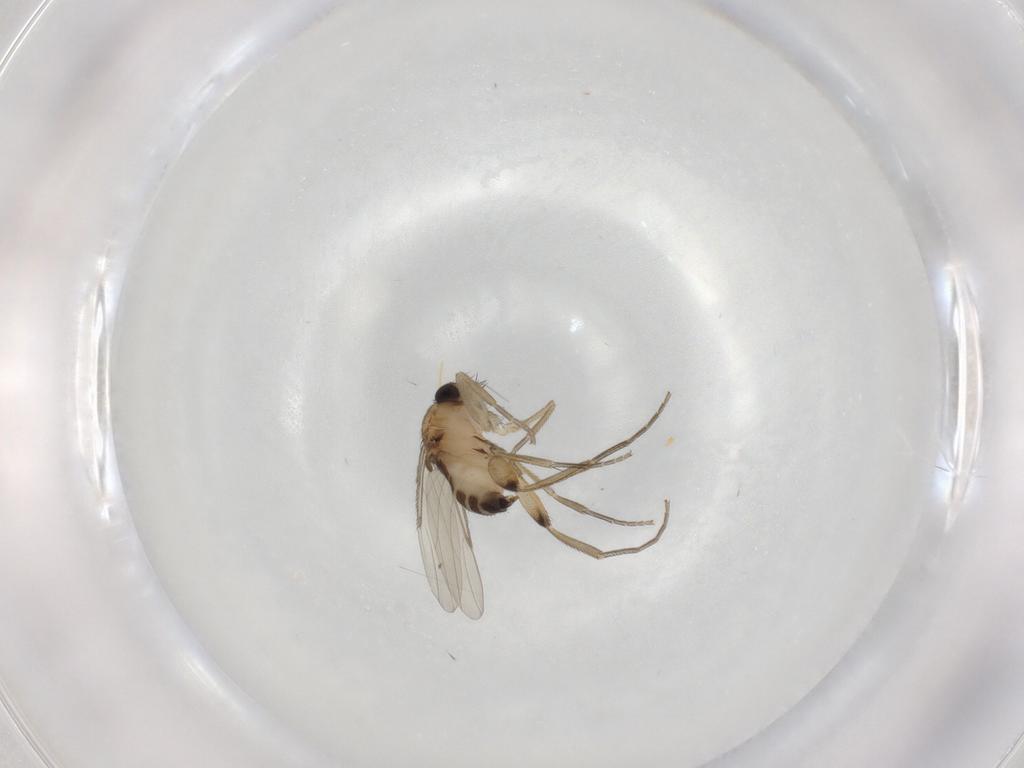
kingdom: Animalia
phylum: Arthropoda
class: Insecta
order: Diptera
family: Phoridae
